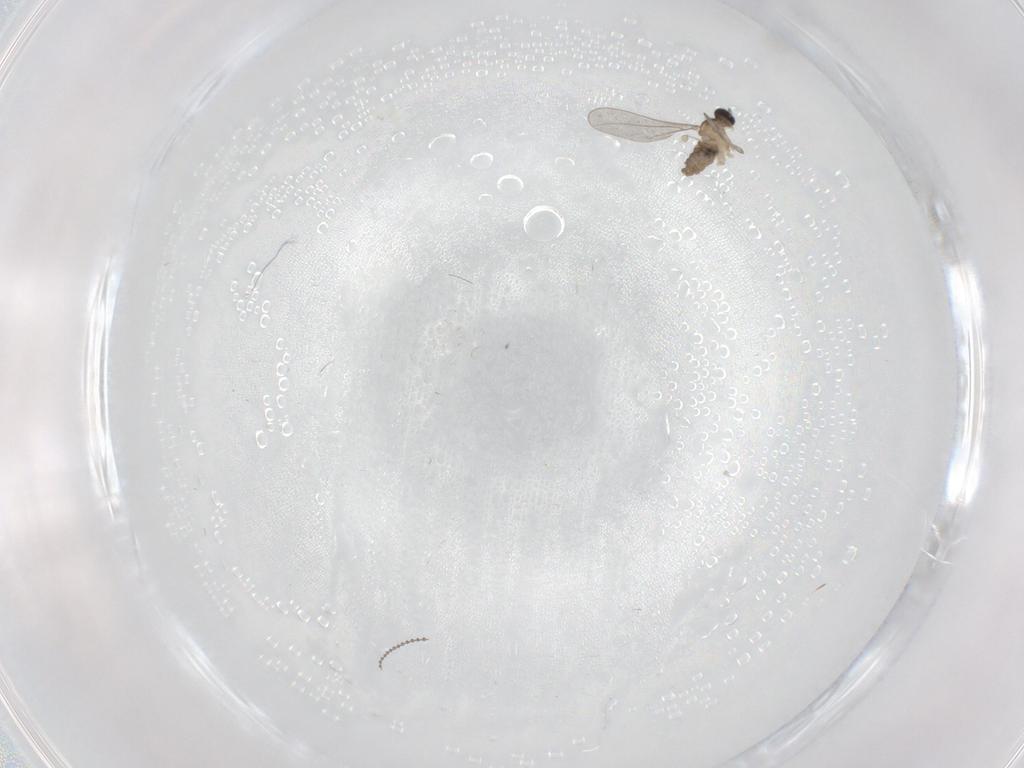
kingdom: Animalia
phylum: Arthropoda
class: Insecta
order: Diptera
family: Cecidomyiidae
